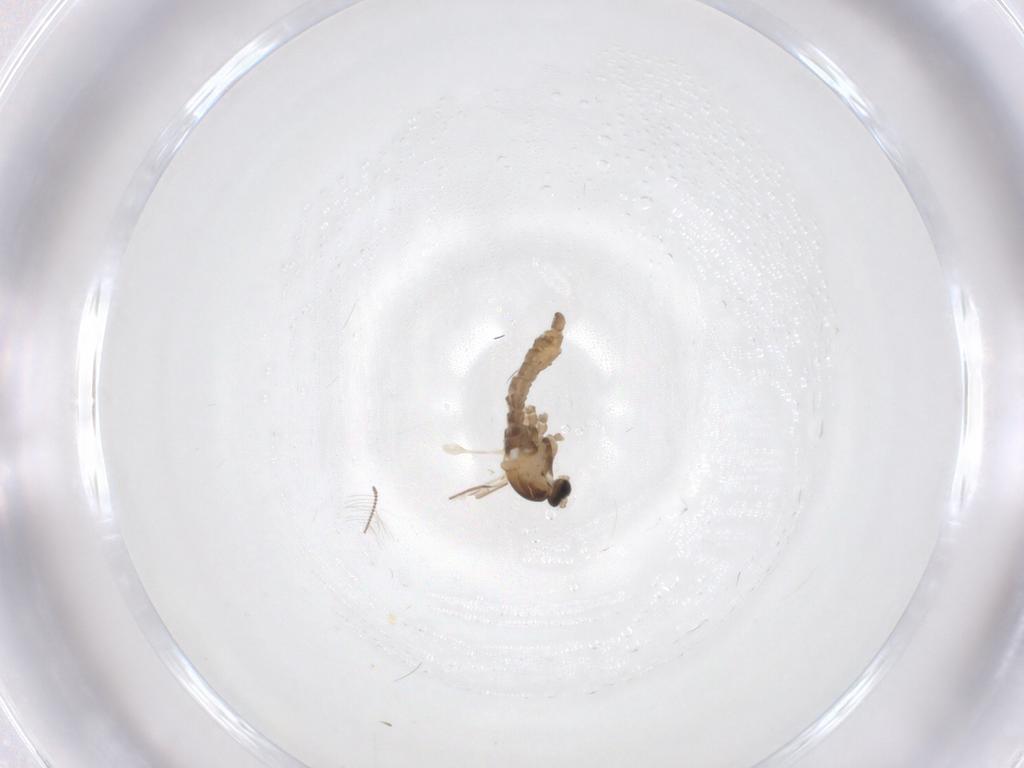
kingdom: Animalia
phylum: Arthropoda
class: Insecta
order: Diptera
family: Cecidomyiidae
